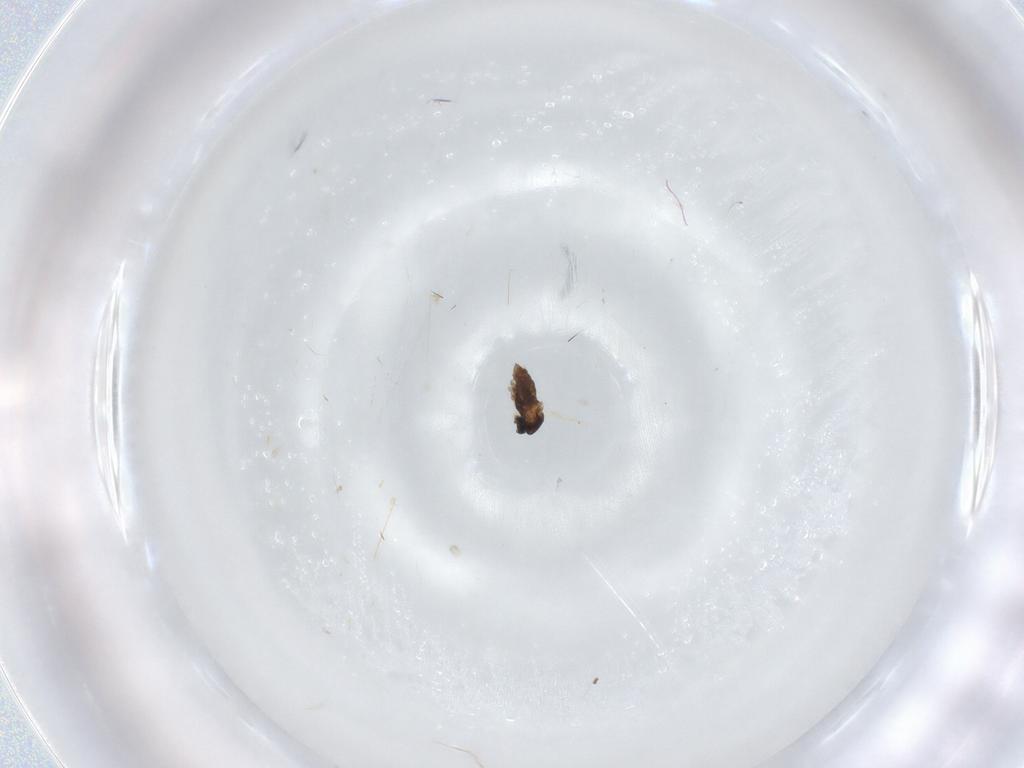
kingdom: Animalia
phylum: Arthropoda
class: Insecta
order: Diptera
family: Cecidomyiidae
